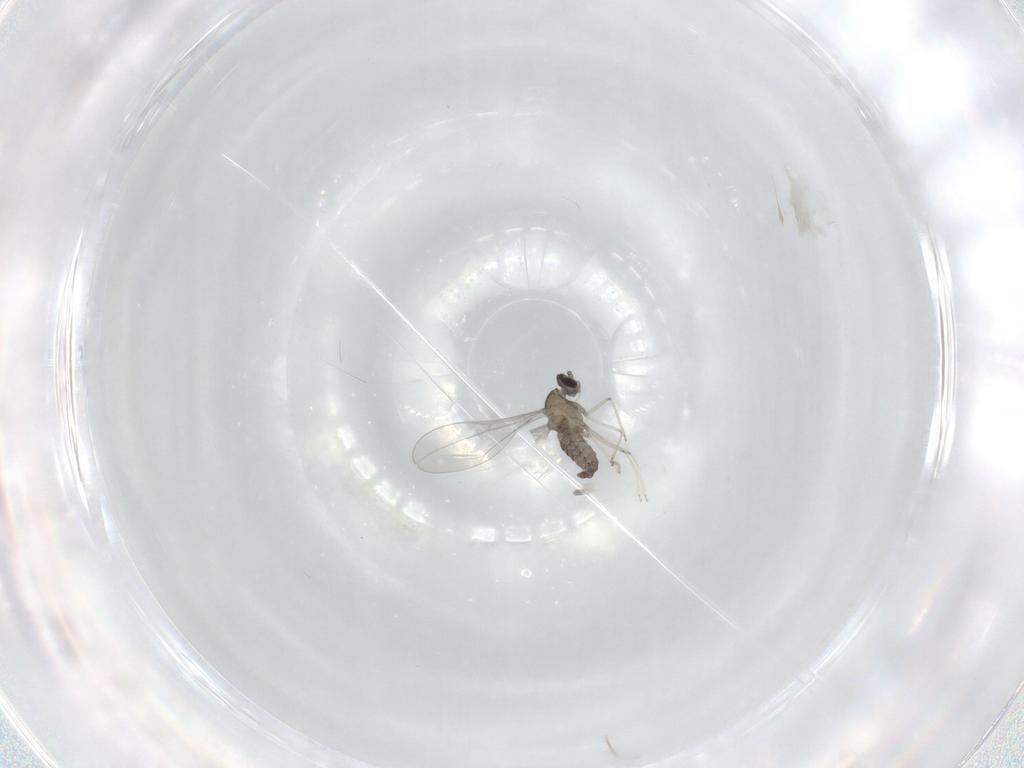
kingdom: Animalia
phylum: Arthropoda
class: Insecta
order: Diptera
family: Cecidomyiidae
